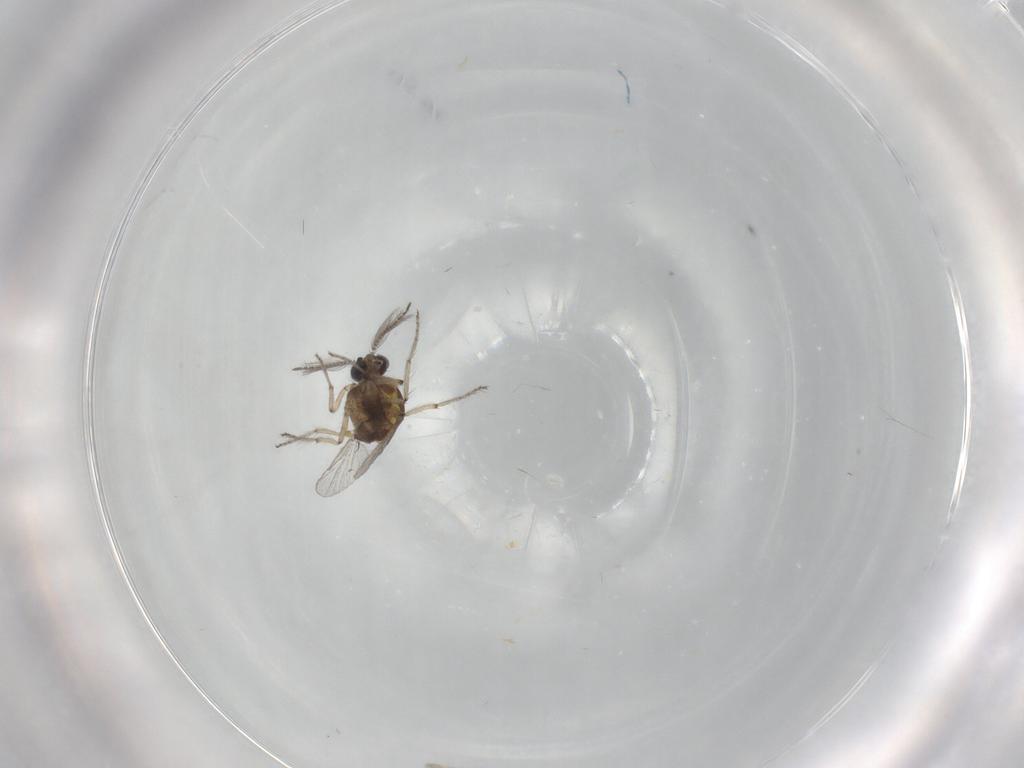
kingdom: Animalia
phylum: Arthropoda
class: Insecta
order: Diptera
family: Ceratopogonidae
